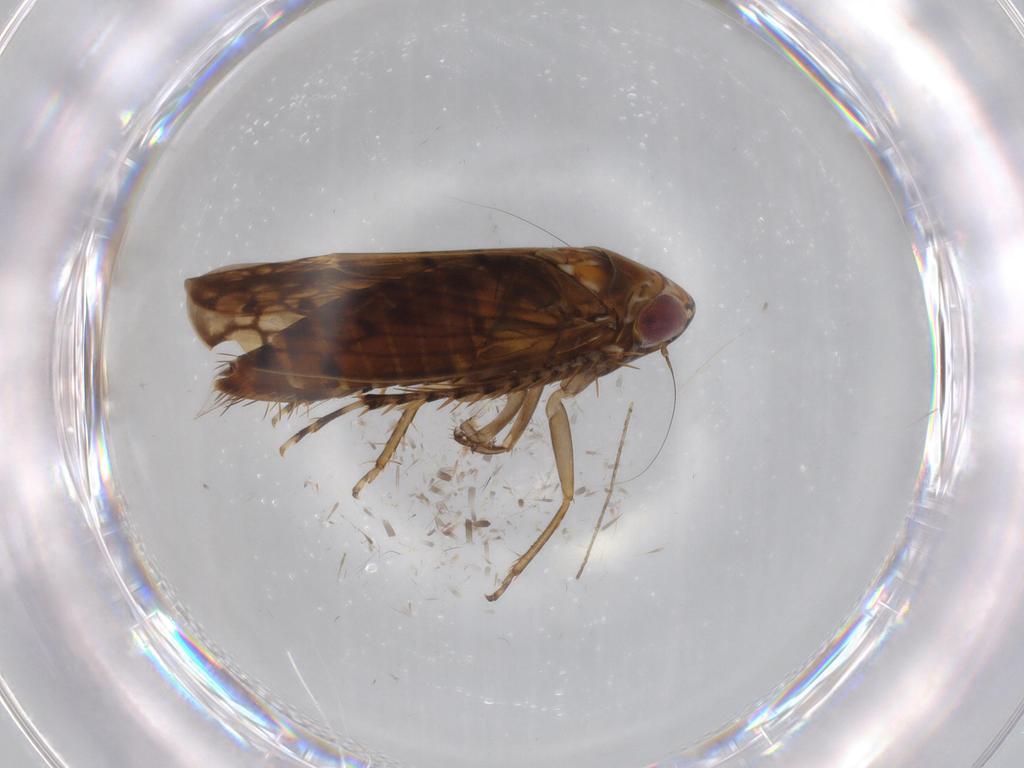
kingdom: Animalia
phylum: Arthropoda
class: Insecta
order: Hemiptera
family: Cicadellidae
